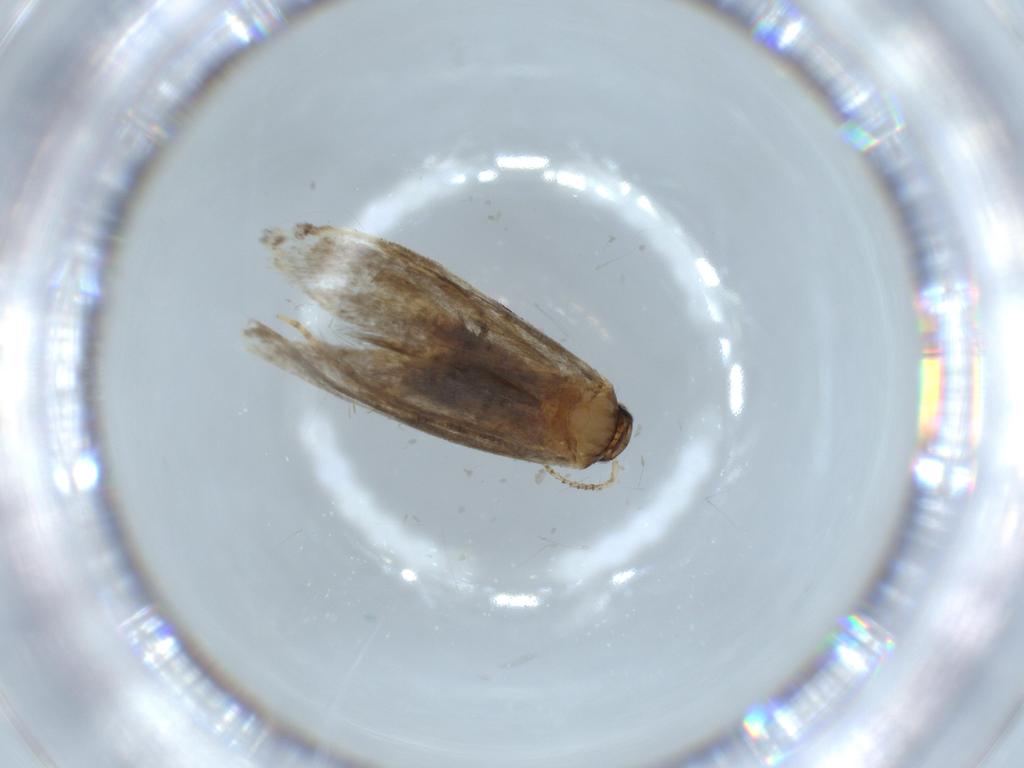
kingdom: Animalia
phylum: Arthropoda
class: Insecta
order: Lepidoptera
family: Tineidae
